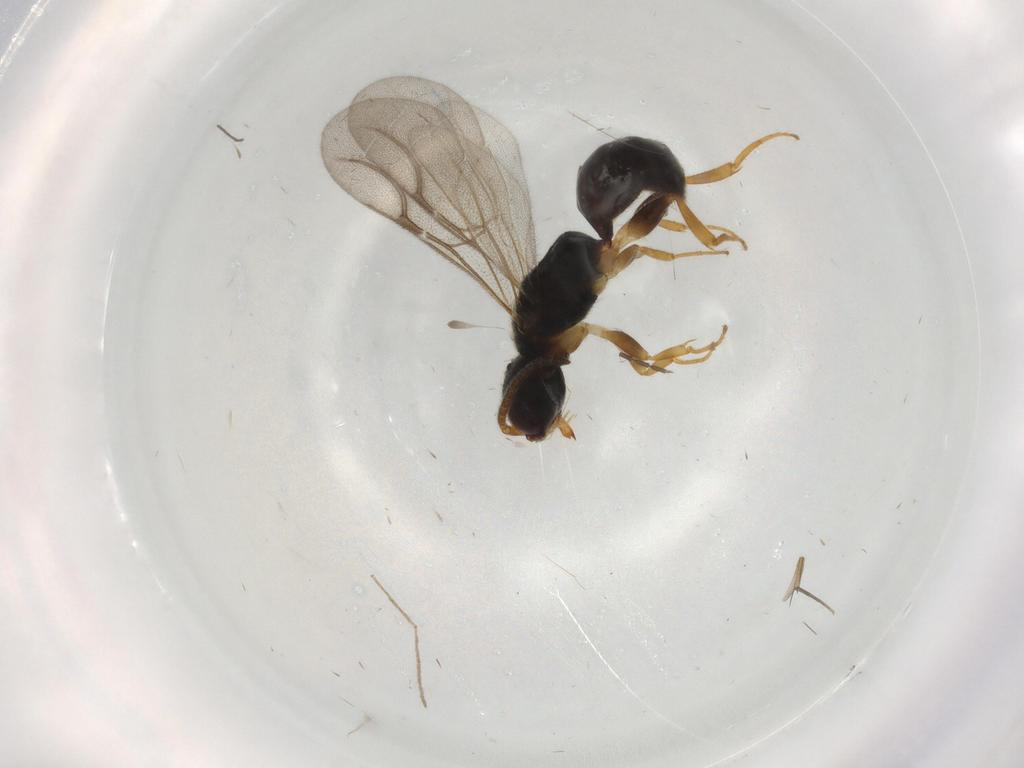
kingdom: Animalia
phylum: Arthropoda
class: Insecta
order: Hymenoptera
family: Bethylidae
